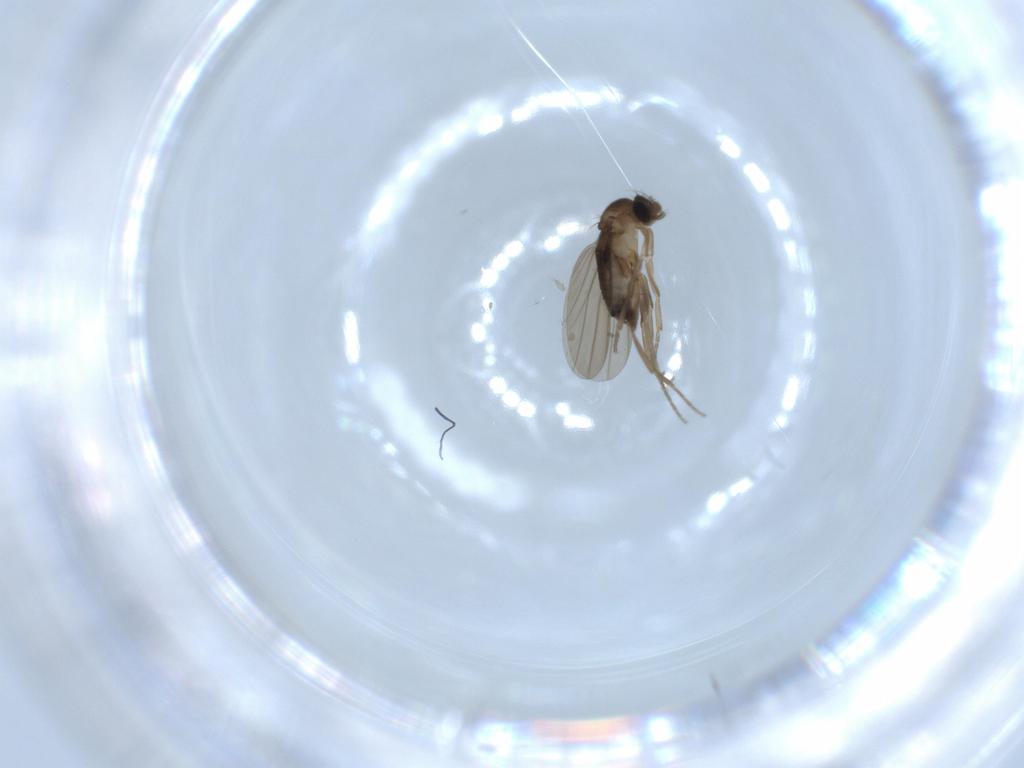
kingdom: Animalia
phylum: Arthropoda
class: Insecta
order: Diptera
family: Phoridae
